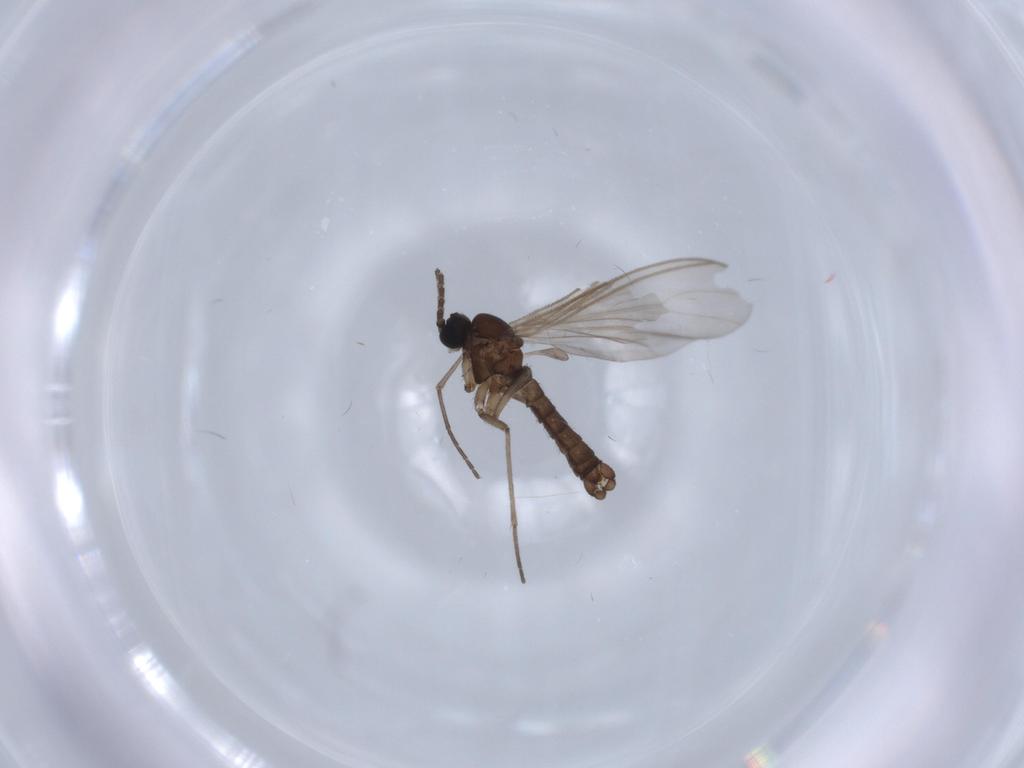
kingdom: Animalia
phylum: Arthropoda
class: Insecta
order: Diptera
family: Sciaridae
